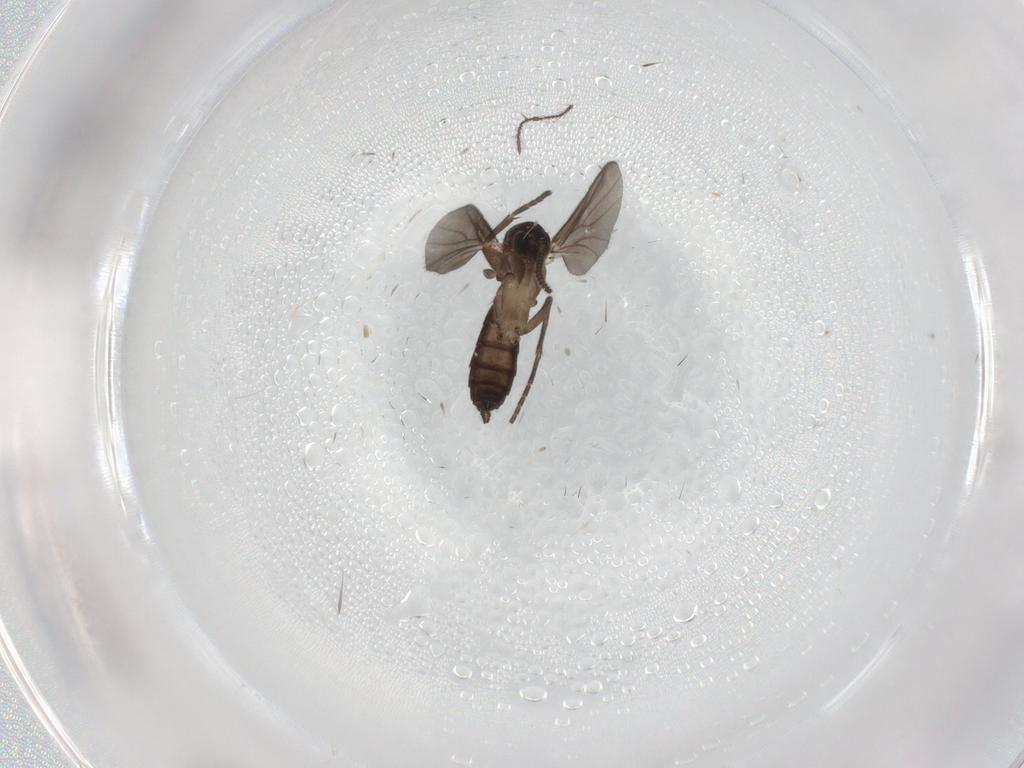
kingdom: Animalia
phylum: Arthropoda
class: Insecta
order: Diptera
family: Mycetophilidae
